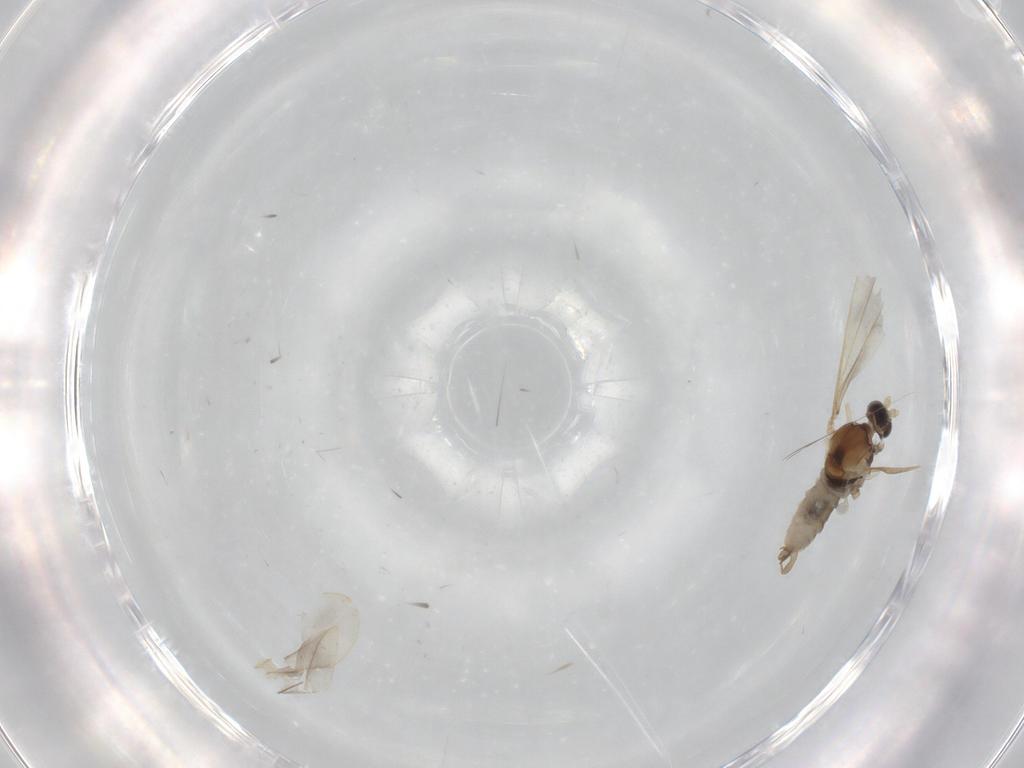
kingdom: Animalia
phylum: Arthropoda
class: Insecta
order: Diptera
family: Cecidomyiidae
